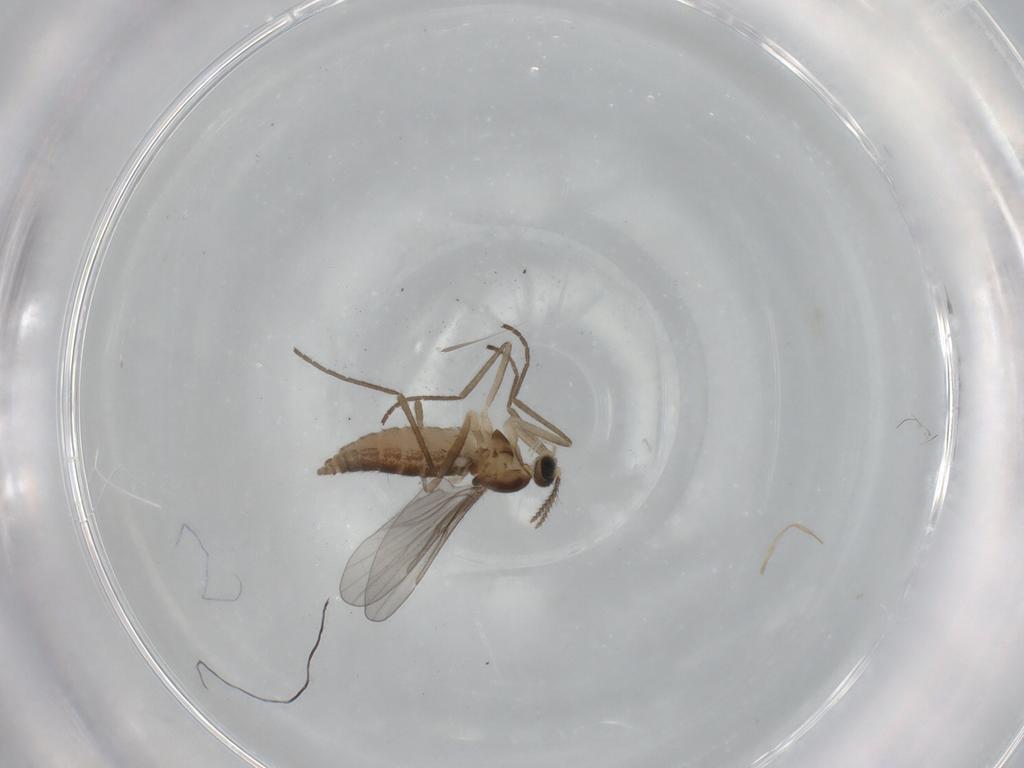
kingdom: Animalia
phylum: Arthropoda
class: Insecta
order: Diptera
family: Cecidomyiidae
